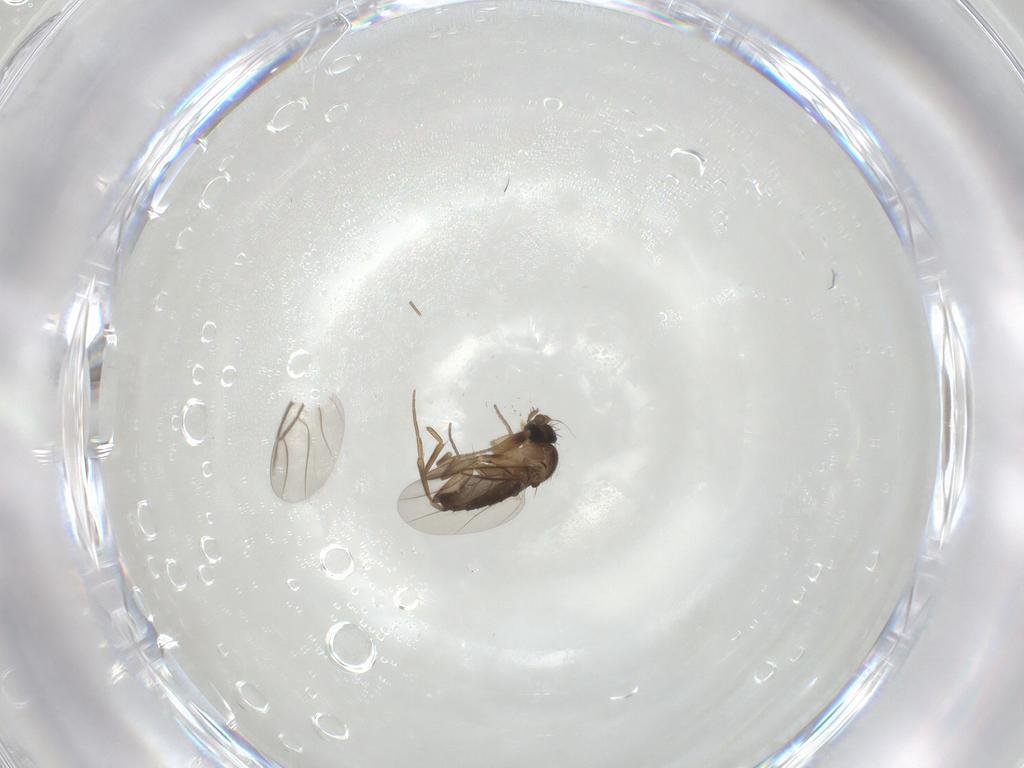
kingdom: Animalia
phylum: Arthropoda
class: Insecta
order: Diptera
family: Phoridae
